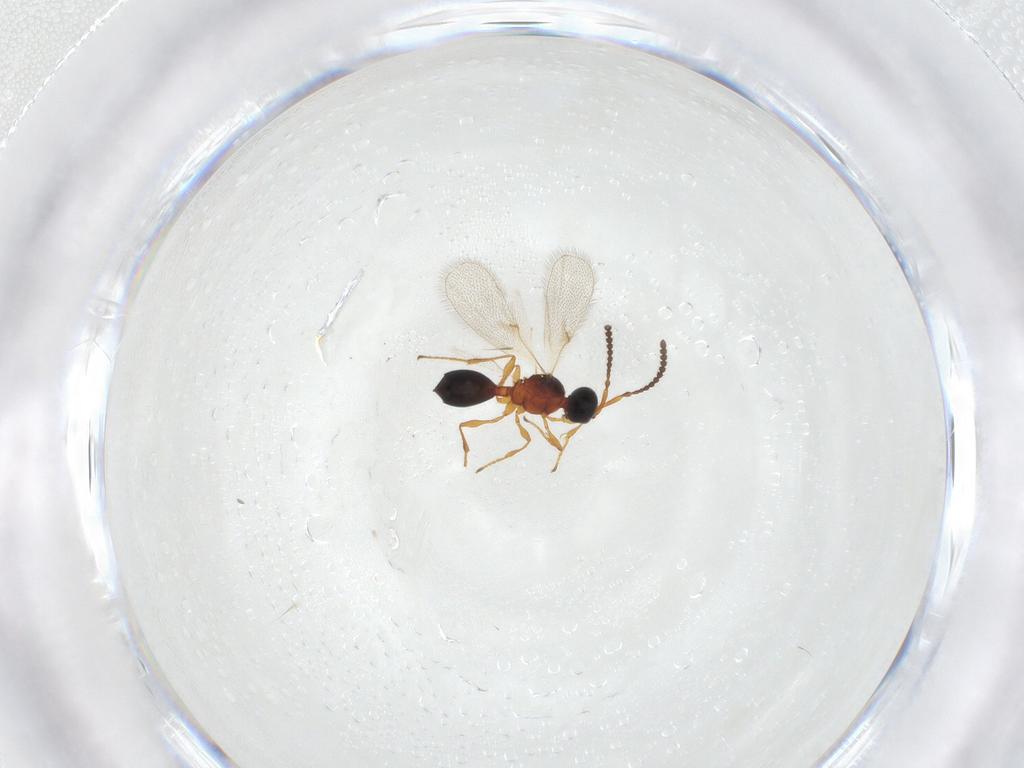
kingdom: Animalia
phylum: Arthropoda
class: Insecta
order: Hymenoptera
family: Diapriidae
